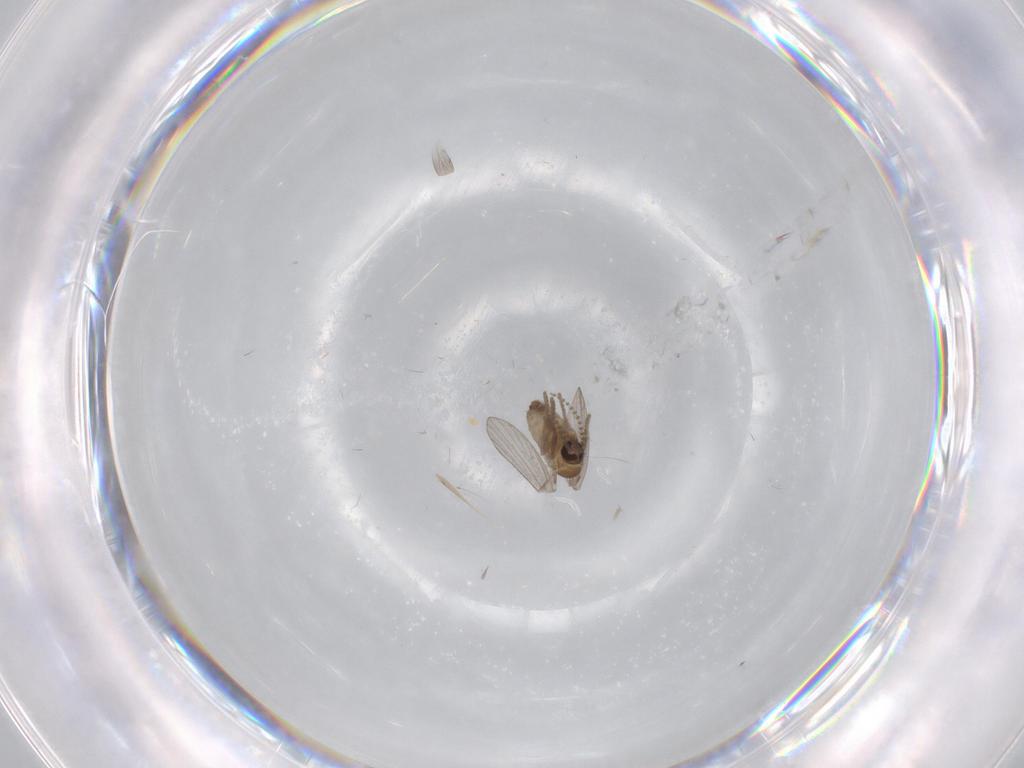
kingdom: Animalia
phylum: Arthropoda
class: Insecta
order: Diptera
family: Psychodidae
